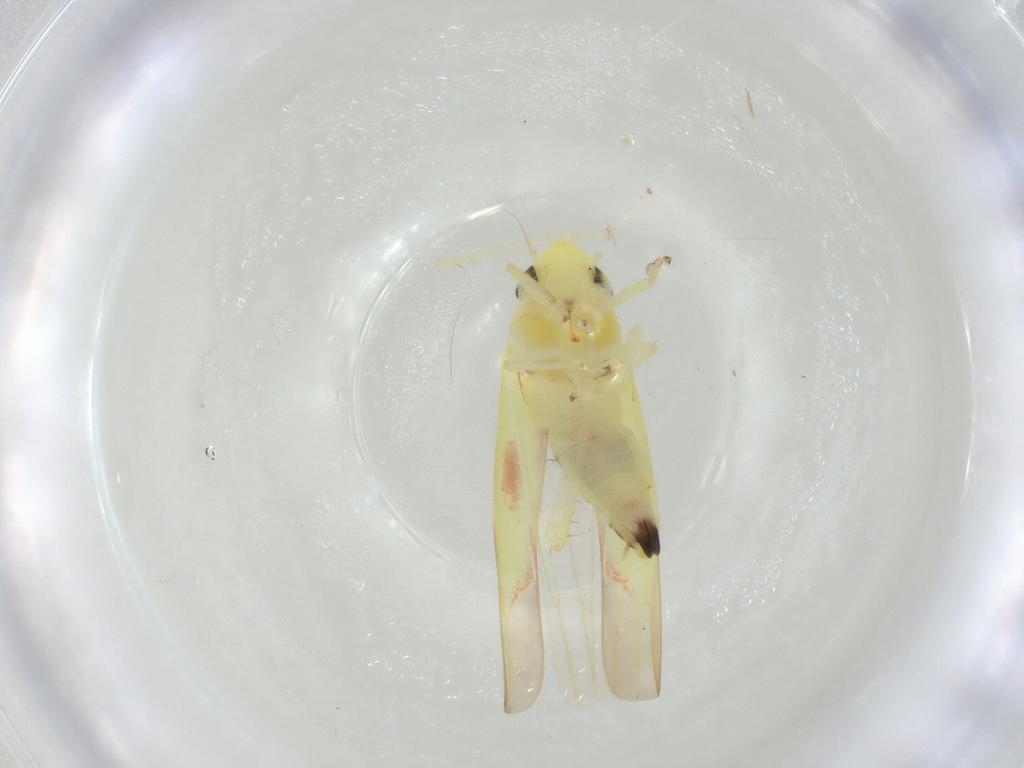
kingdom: Animalia
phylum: Arthropoda
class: Insecta
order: Hemiptera
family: Cicadellidae
